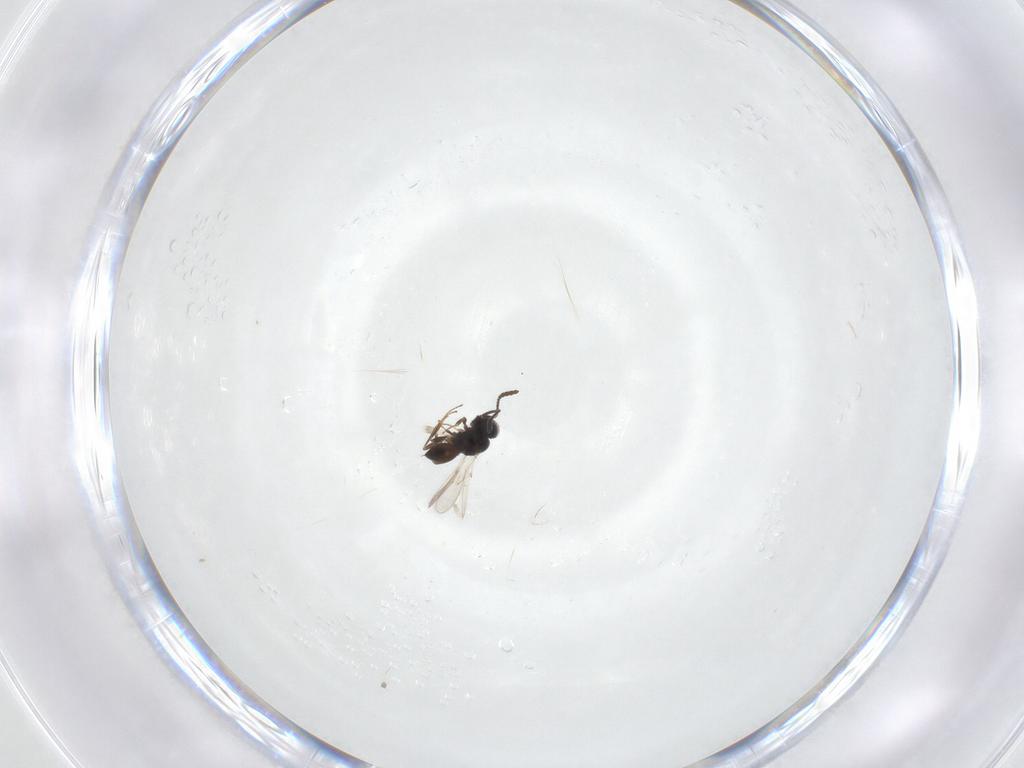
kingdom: Animalia
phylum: Arthropoda
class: Insecta
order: Hymenoptera
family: Scelionidae
